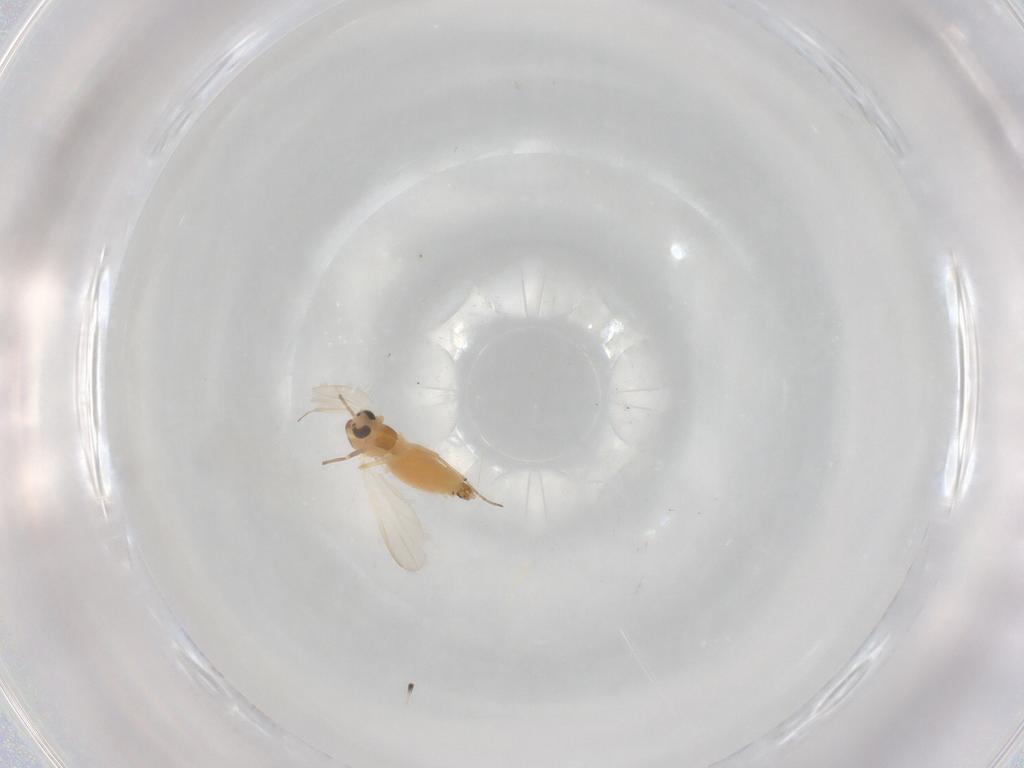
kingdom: Animalia
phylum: Arthropoda
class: Insecta
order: Diptera
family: Chironomidae
